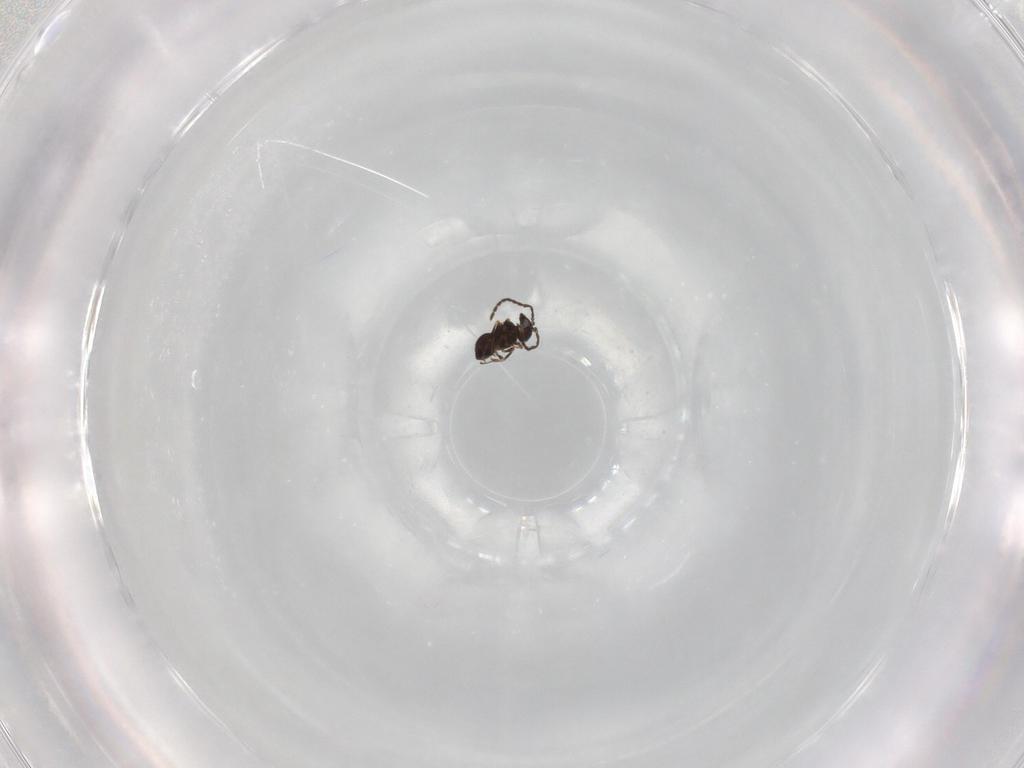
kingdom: Animalia
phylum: Arthropoda
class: Insecta
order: Hymenoptera
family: Scelionidae
